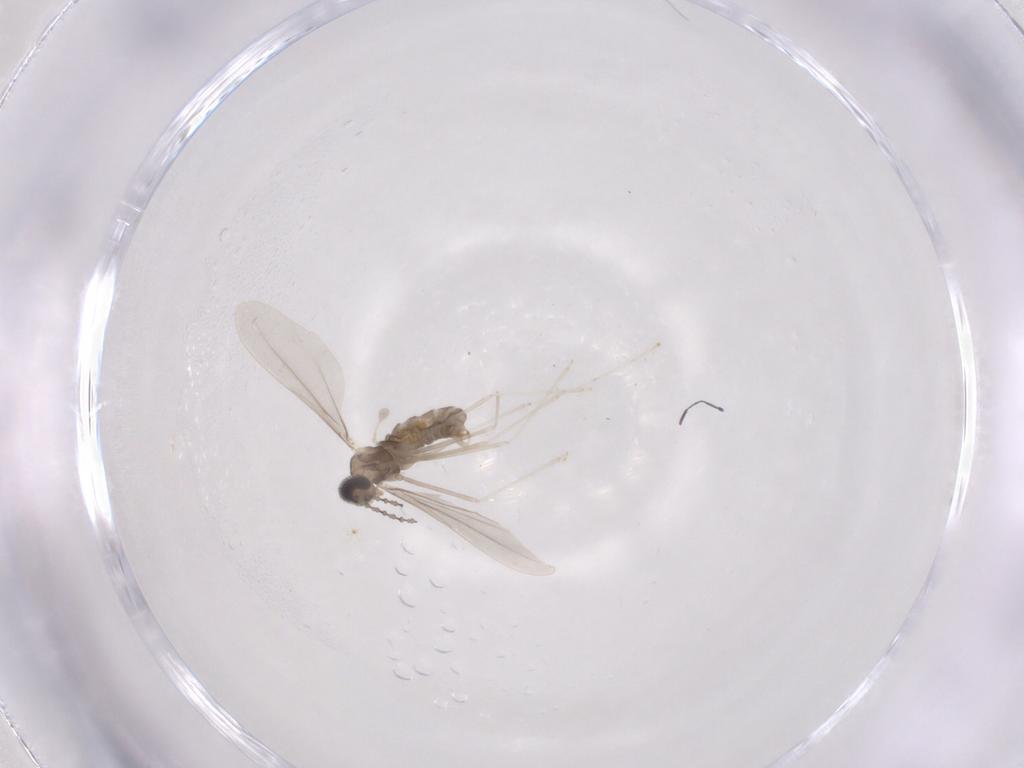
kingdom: Animalia
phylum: Arthropoda
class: Insecta
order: Diptera
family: Cecidomyiidae
